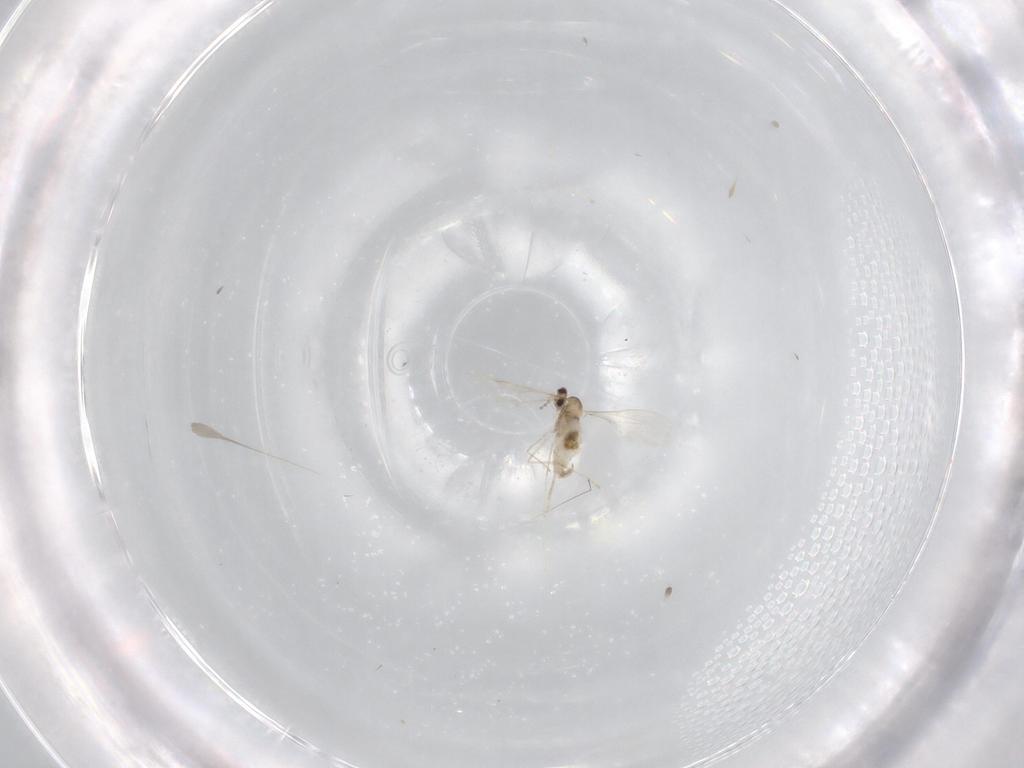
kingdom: Animalia
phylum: Arthropoda
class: Insecta
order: Diptera
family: Cecidomyiidae
